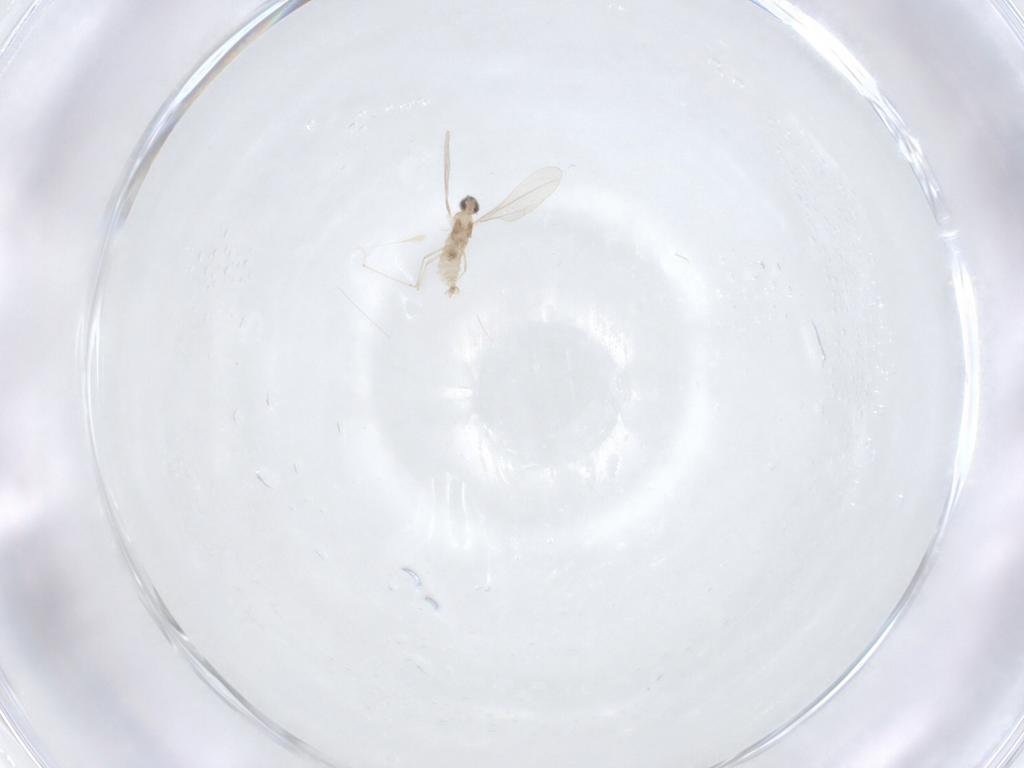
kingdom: Animalia
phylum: Arthropoda
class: Insecta
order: Diptera
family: Cecidomyiidae
